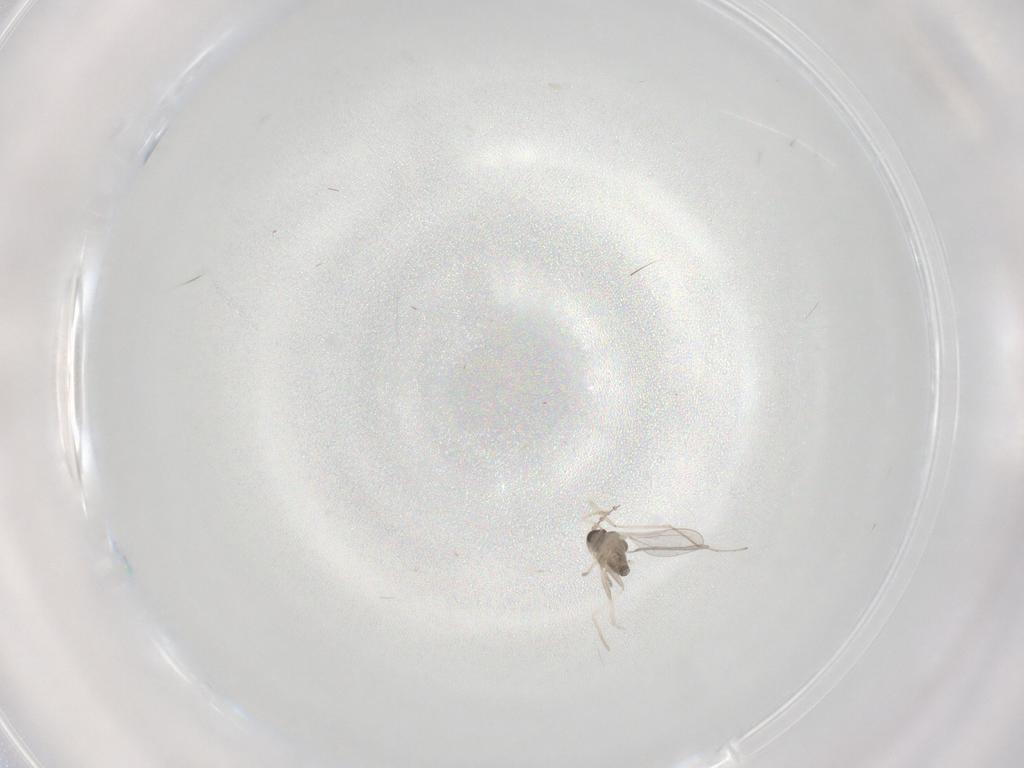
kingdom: Animalia
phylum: Arthropoda
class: Insecta
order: Diptera
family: Cecidomyiidae
